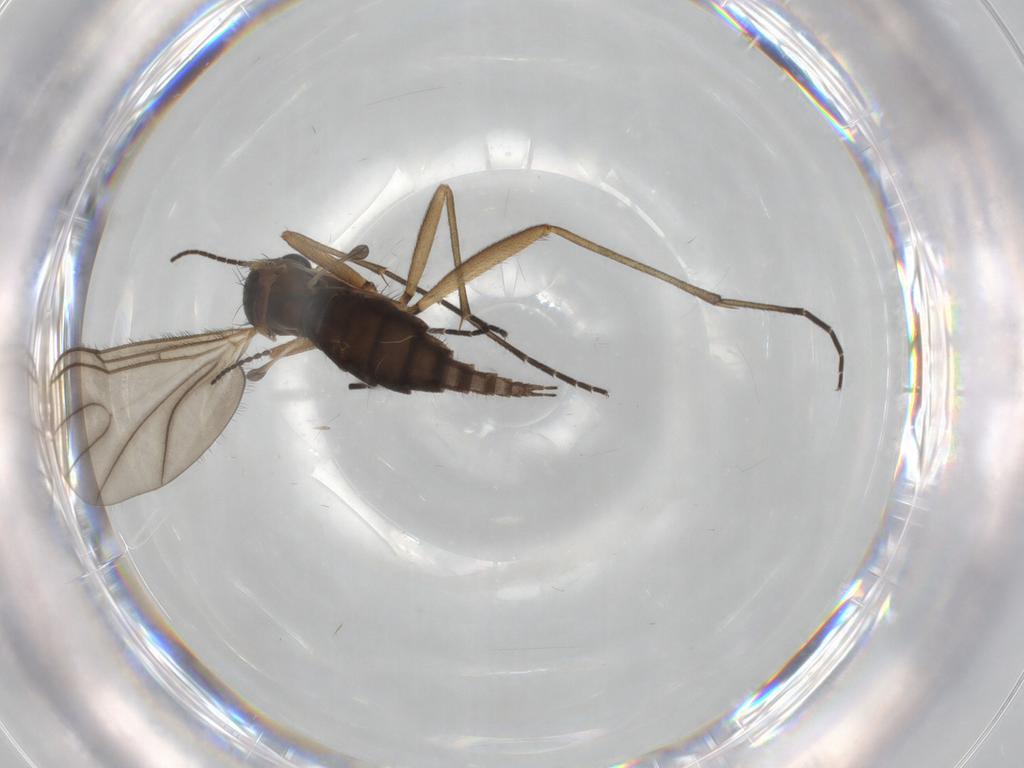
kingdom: Animalia
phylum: Arthropoda
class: Insecta
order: Diptera
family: Sciaridae
